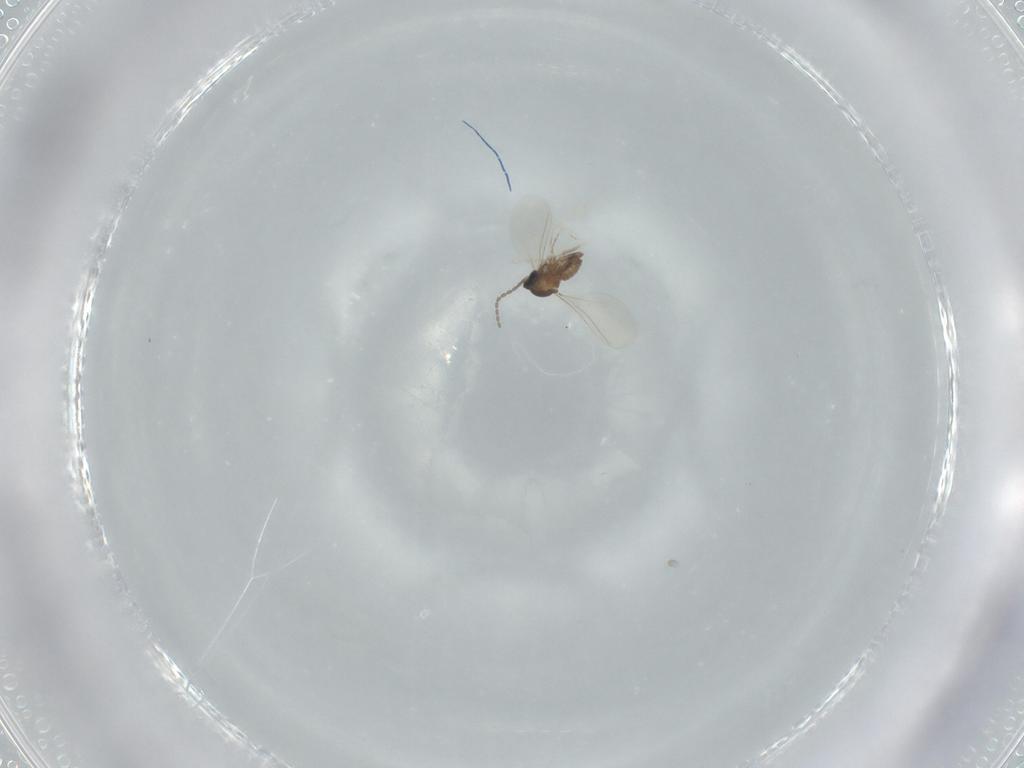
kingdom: Animalia
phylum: Arthropoda
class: Insecta
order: Diptera
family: Cecidomyiidae
